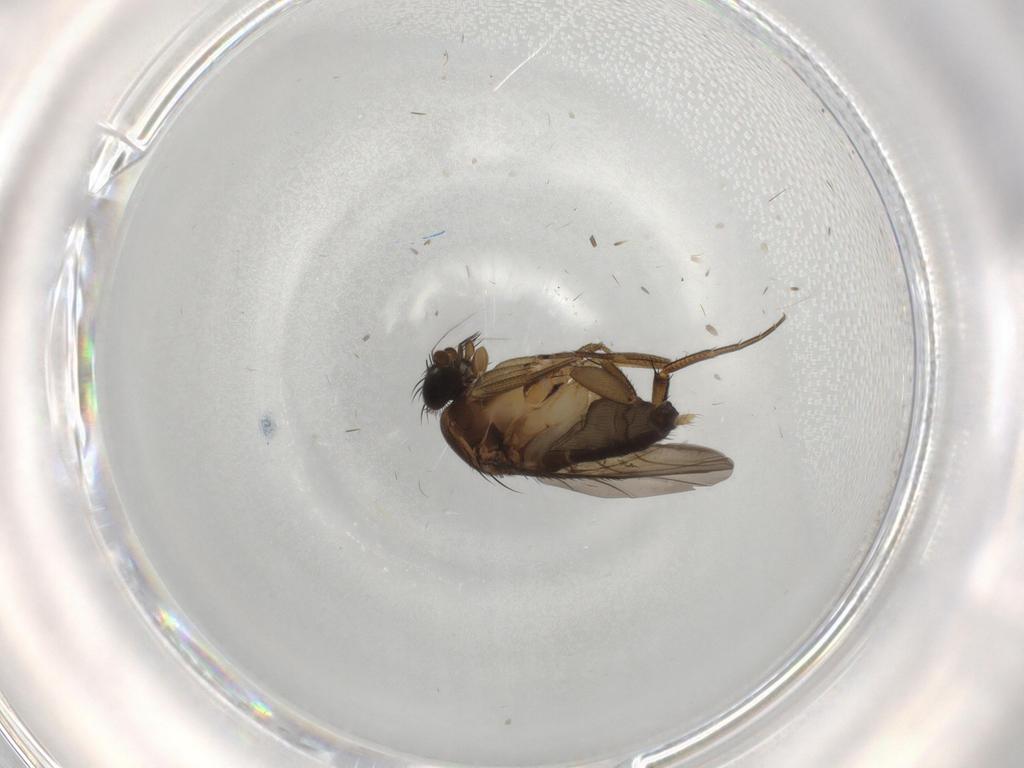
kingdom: Animalia
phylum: Arthropoda
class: Insecta
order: Diptera
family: Phoridae
